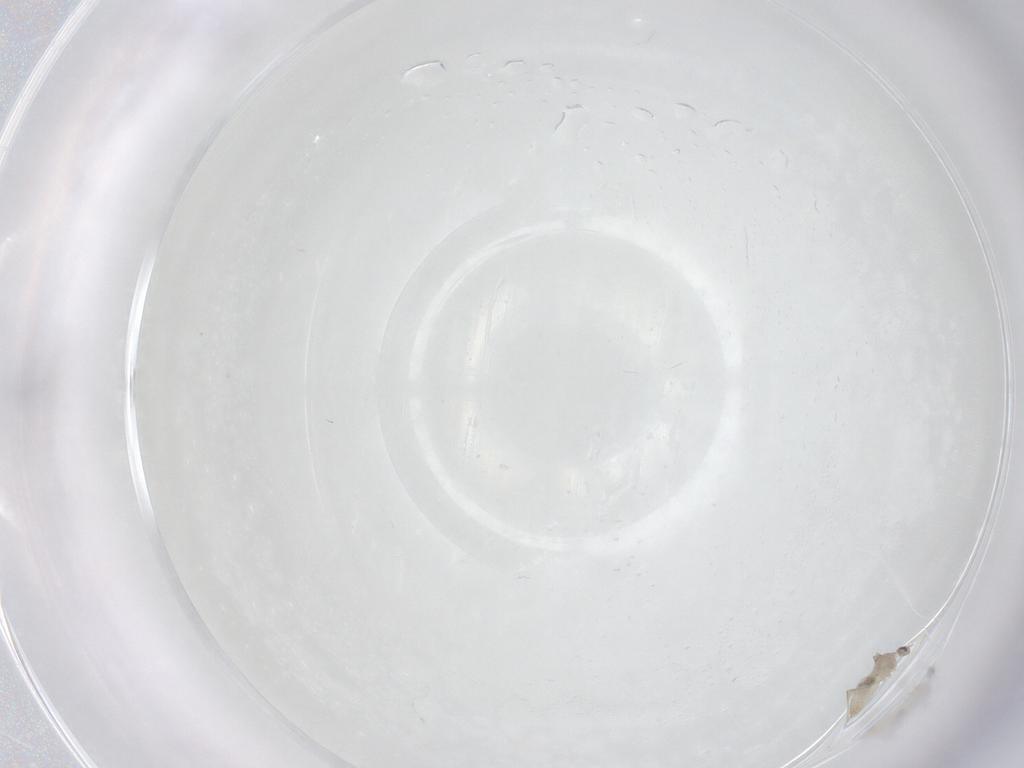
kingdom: Animalia
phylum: Arthropoda
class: Insecta
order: Diptera
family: Cecidomyiidae
